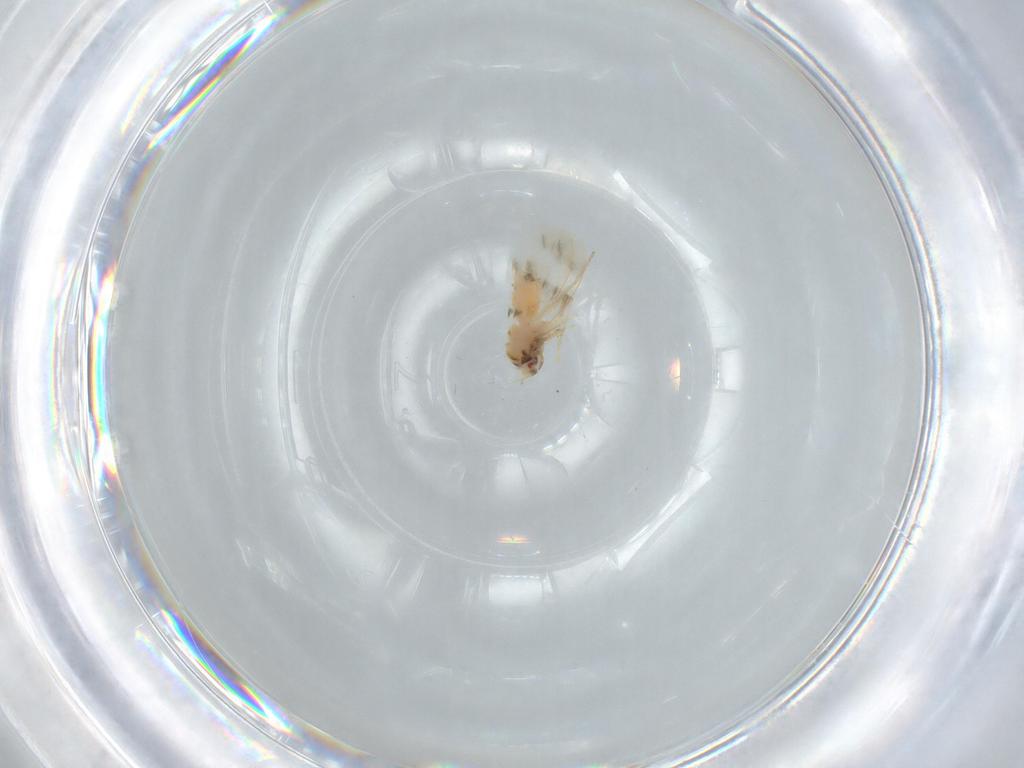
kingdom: Animalia
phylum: Arthropoda
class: Insecta
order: Hemiptera
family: Aleyrodidae
